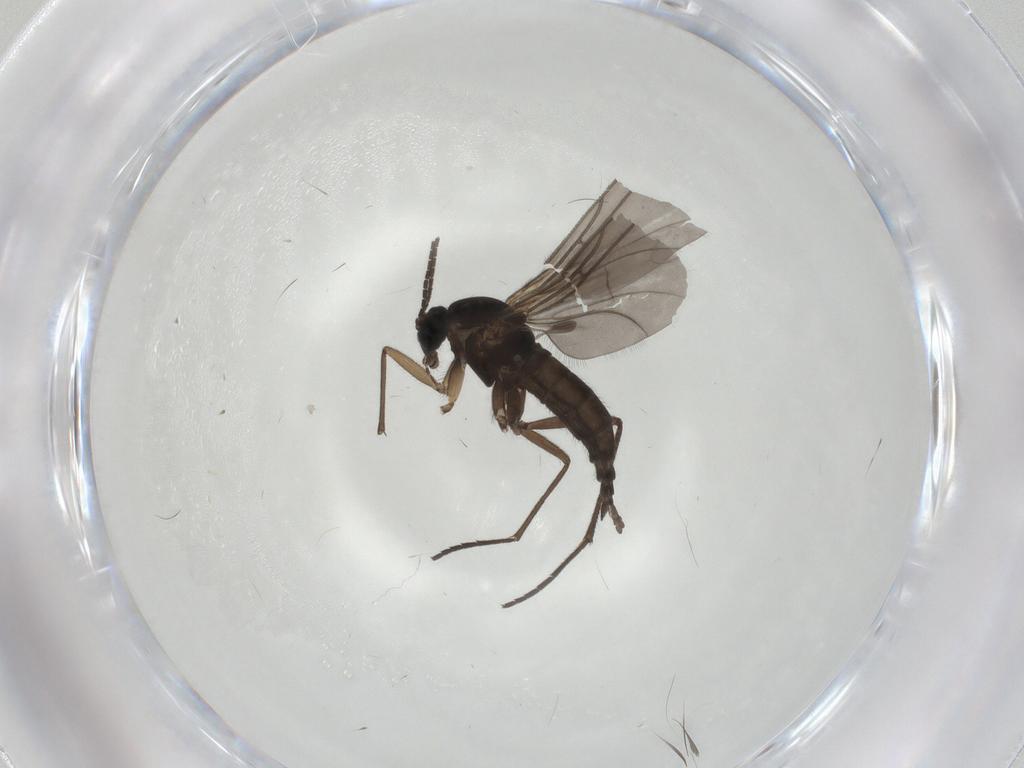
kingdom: Animalia
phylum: Arthropoda
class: Insecta
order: Diptera
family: Sciaridae
